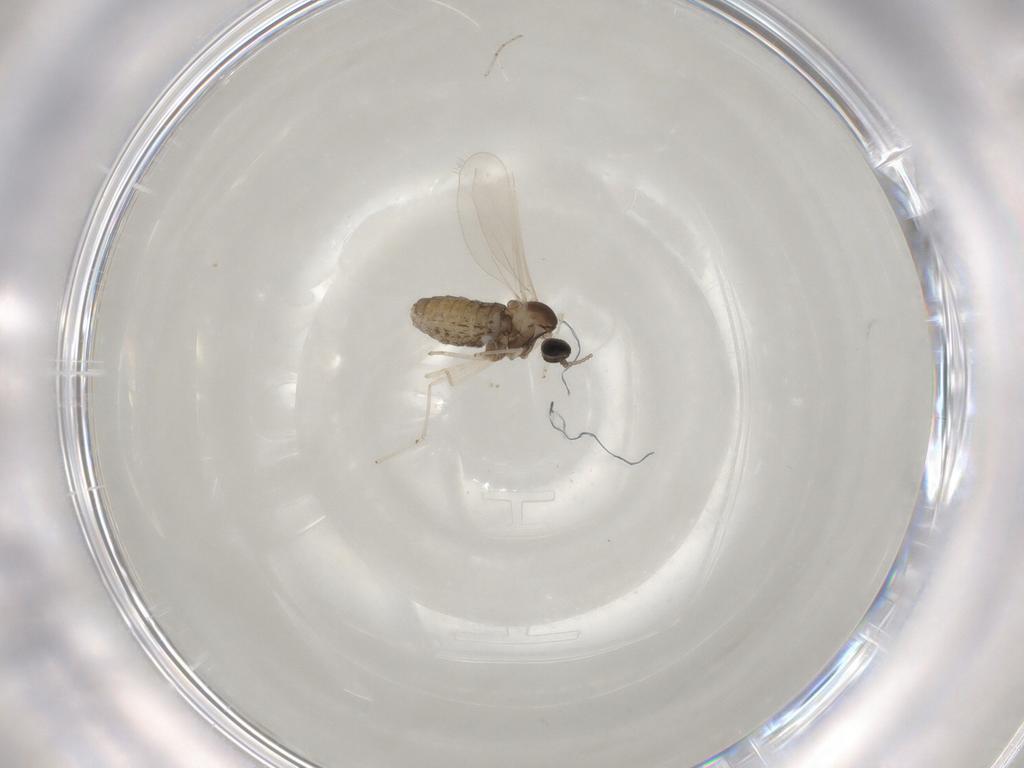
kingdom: Animalia
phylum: Arthropoda
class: Insecta
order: Diptera
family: Cecidomyiidae
